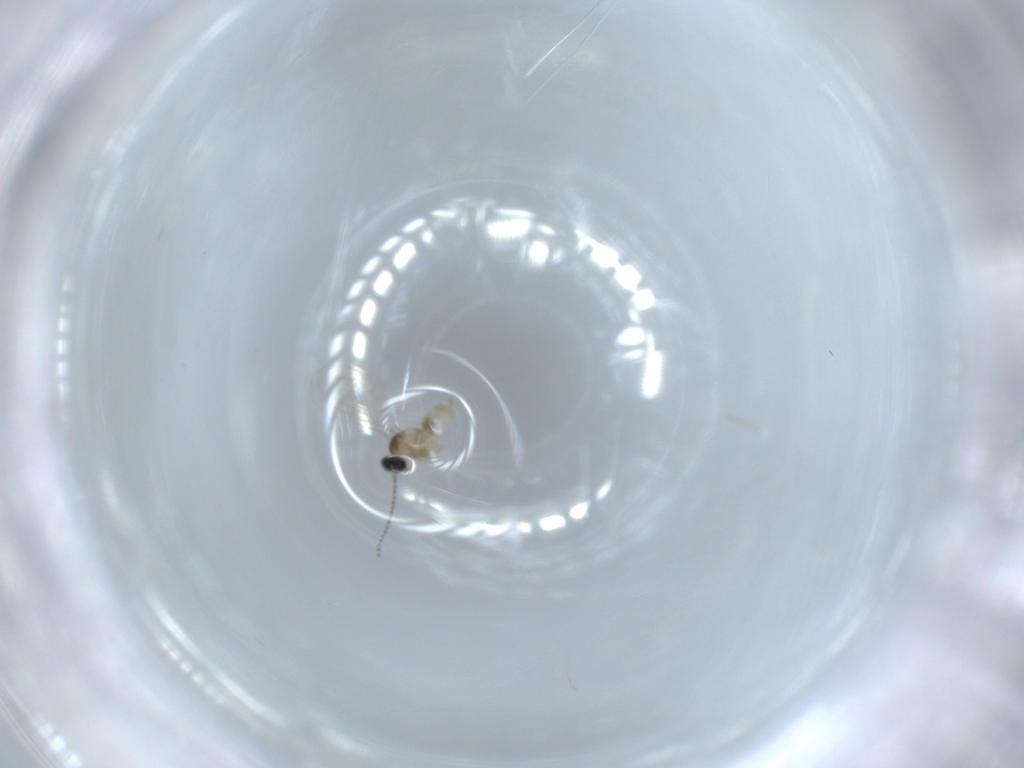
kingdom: Animalia
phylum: Arthropoda
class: Insecta
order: Diptera
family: Cecidomyiidae
